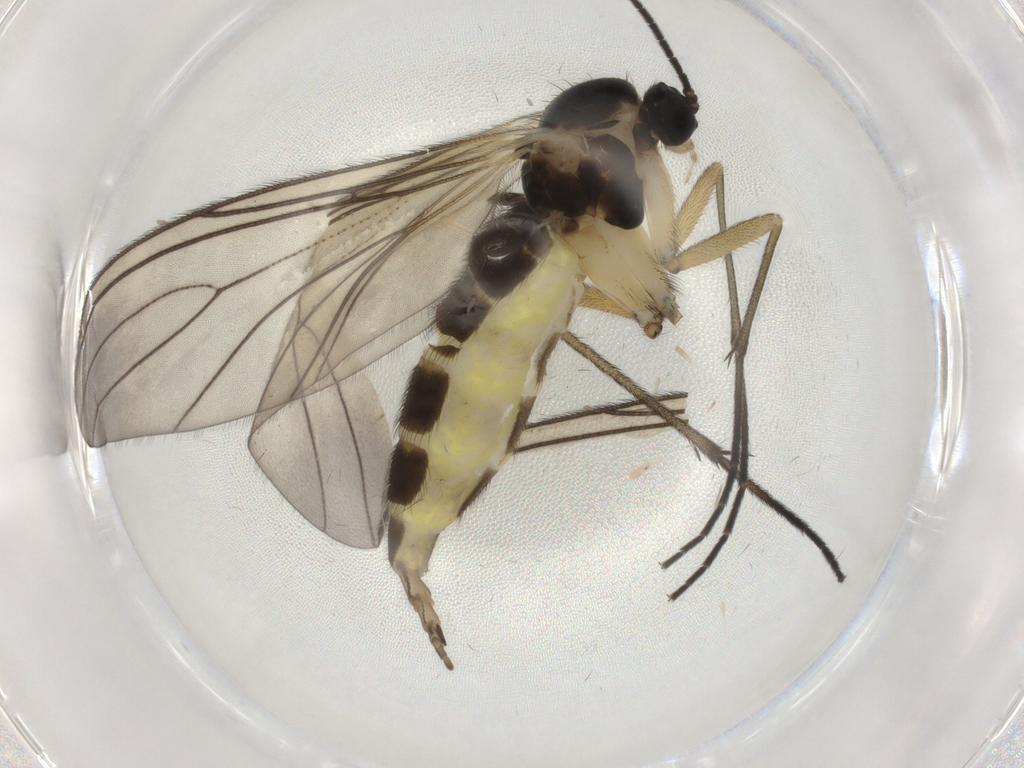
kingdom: Animalia
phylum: Arthropoda
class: Insecta
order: Diptera
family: Sciaridae
